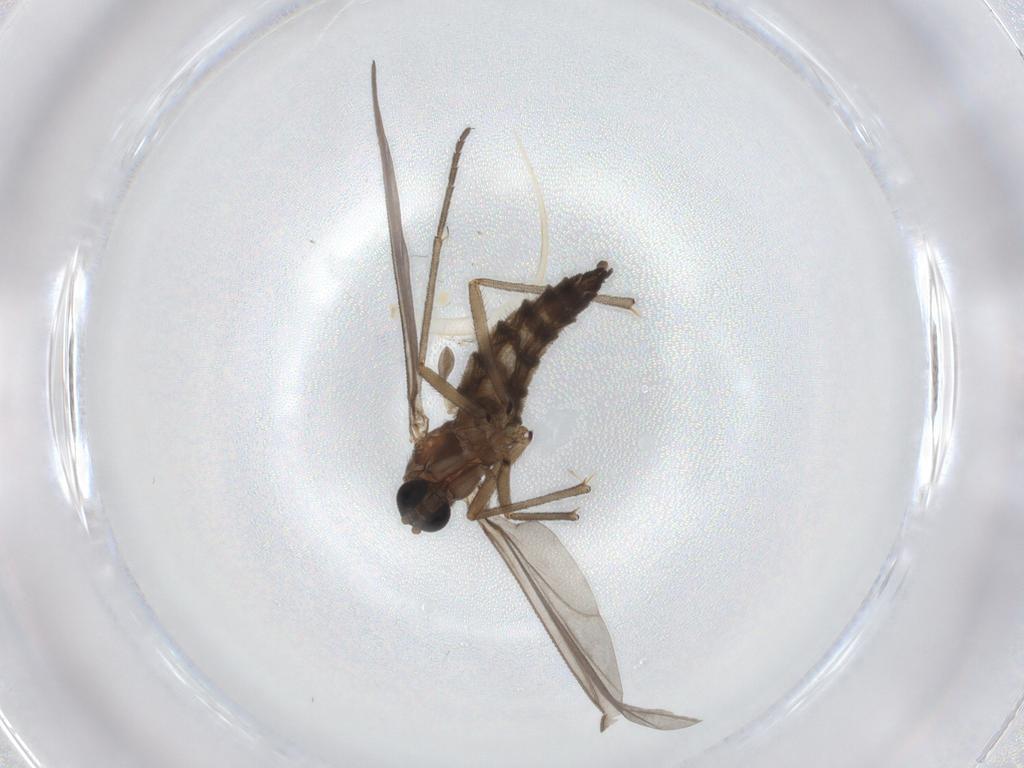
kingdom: Animalia
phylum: Arthropoda
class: Insecta
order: Diptera
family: Sciaridae
